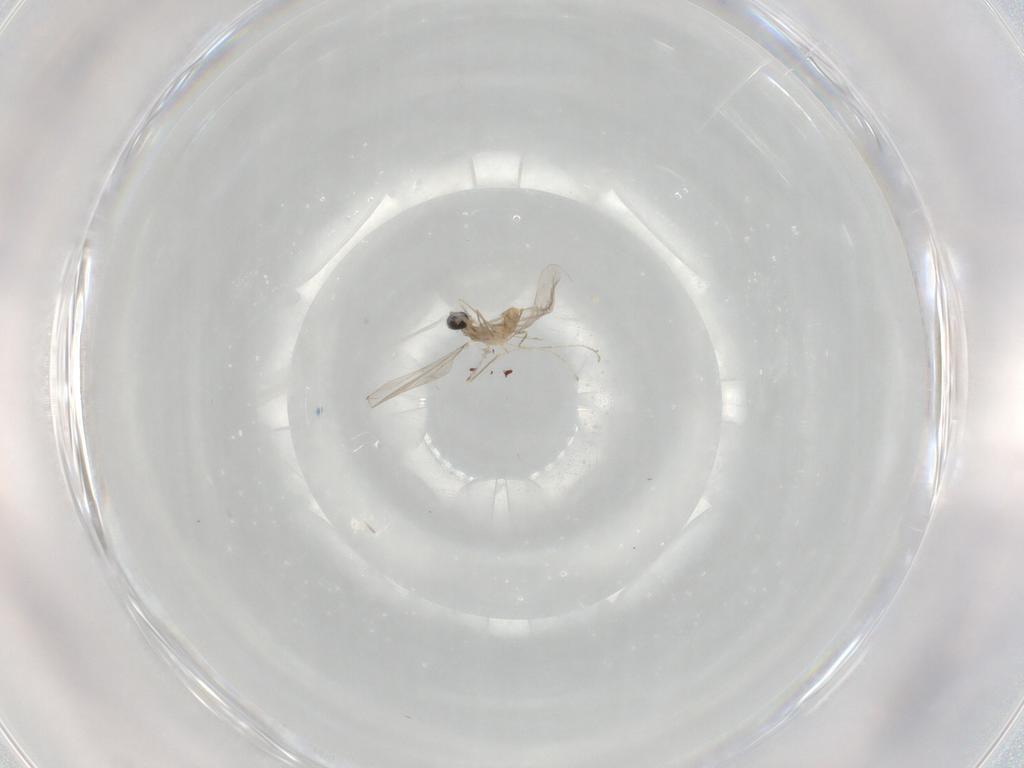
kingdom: Animalia
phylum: Arthropoda
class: Insecta
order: Diptera
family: Cecidomyiidae
